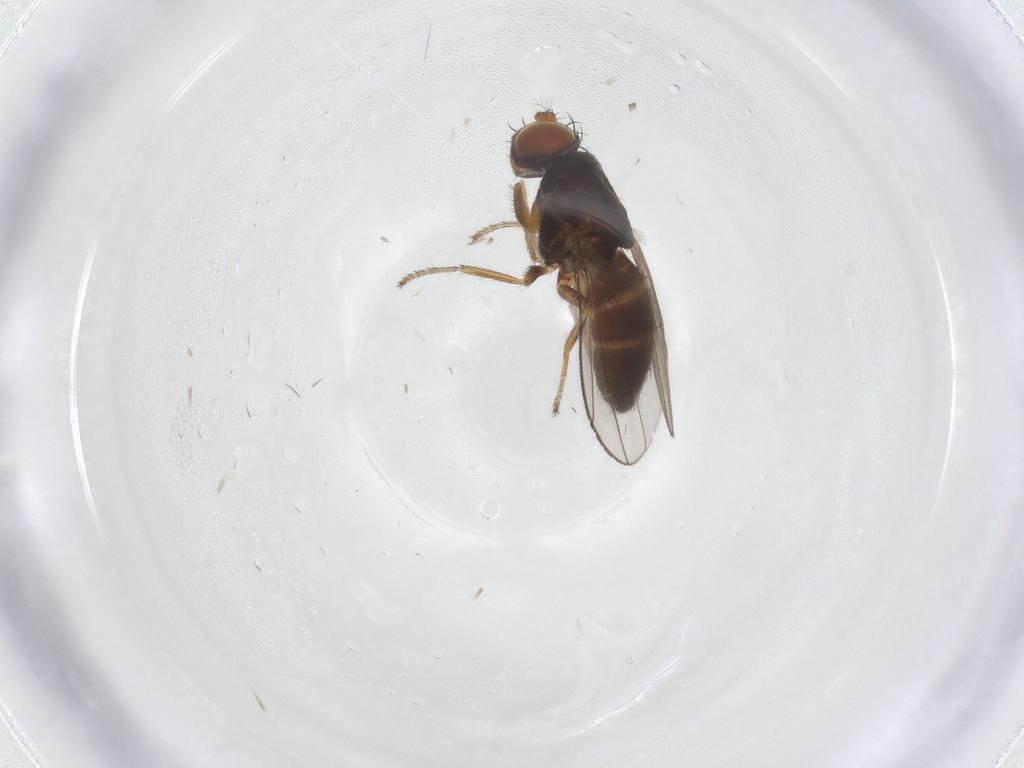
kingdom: Animalia
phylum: Arthropoda
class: Insecta
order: Diptera
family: Ephydridae
